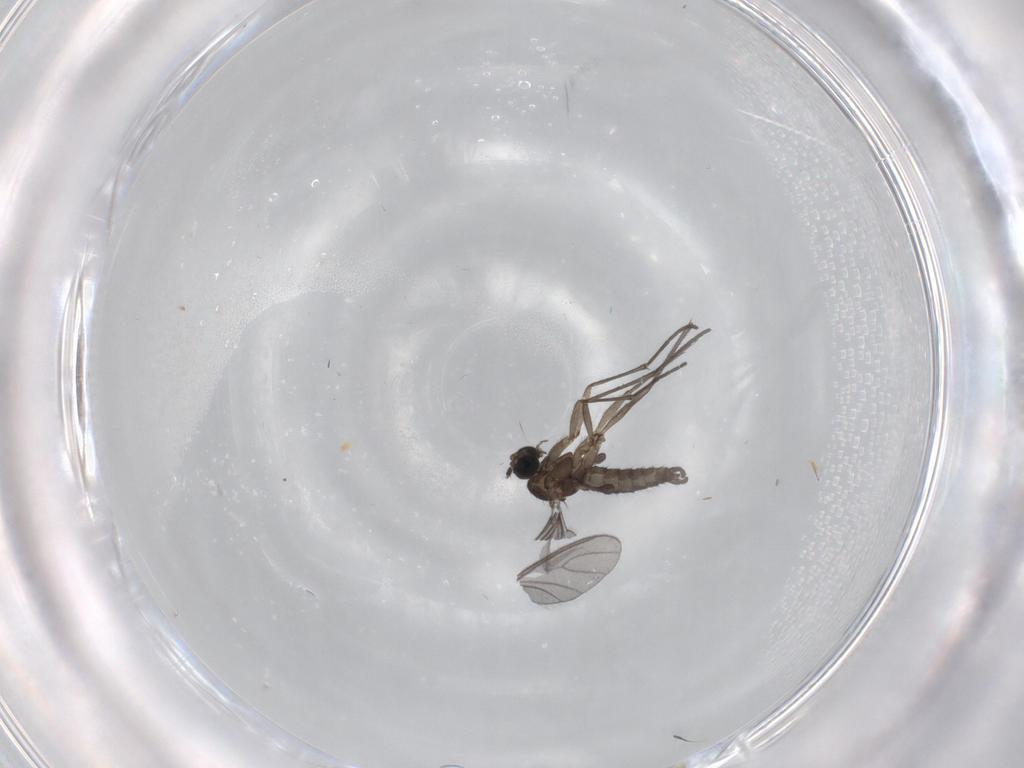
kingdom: Animalia
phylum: Arthropoda
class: Insecta
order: Diptera
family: Sciaridae
